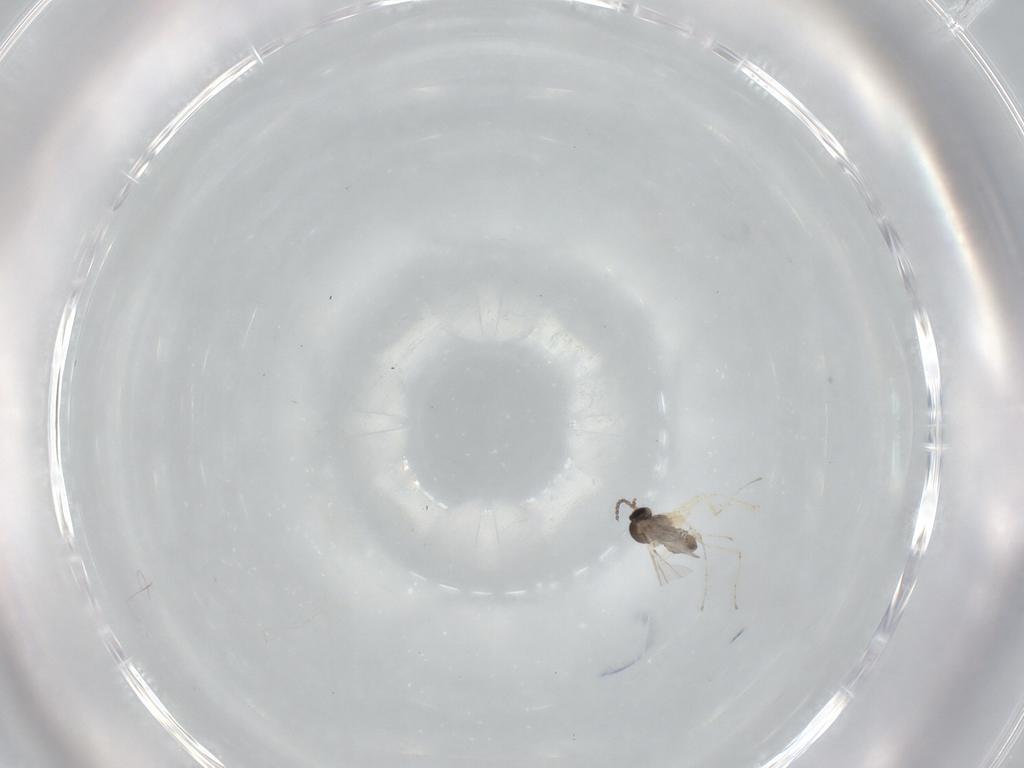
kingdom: Animalia
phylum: Arthropoda
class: Insecta
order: Diptera
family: Cecidomyiidae
